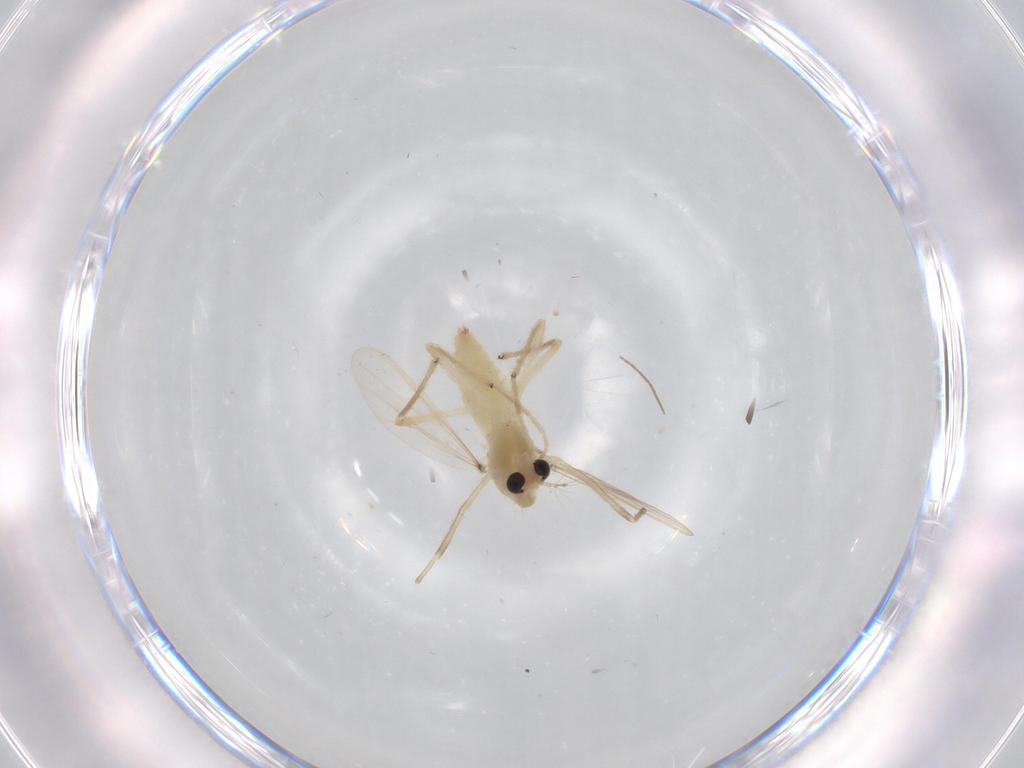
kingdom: Animalia
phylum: Arthropoda
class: Insecta
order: Diptera
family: Chironomidae
